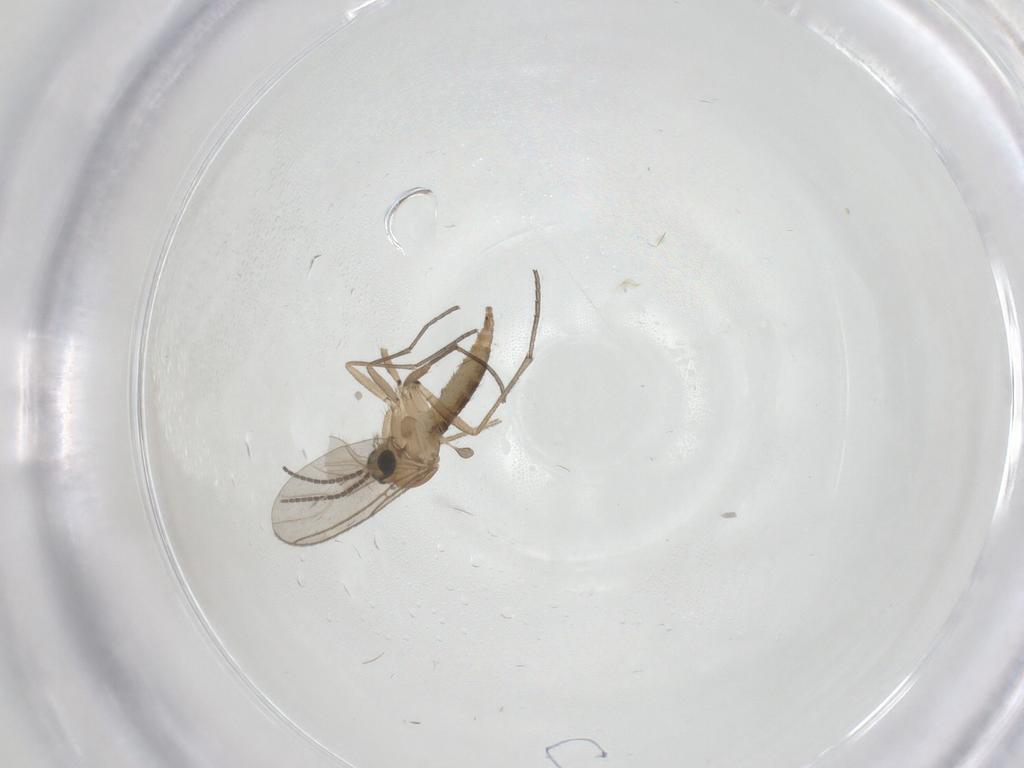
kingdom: Animalia
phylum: Arthropoda
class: Insecta
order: Diptera
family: Sciaridae
